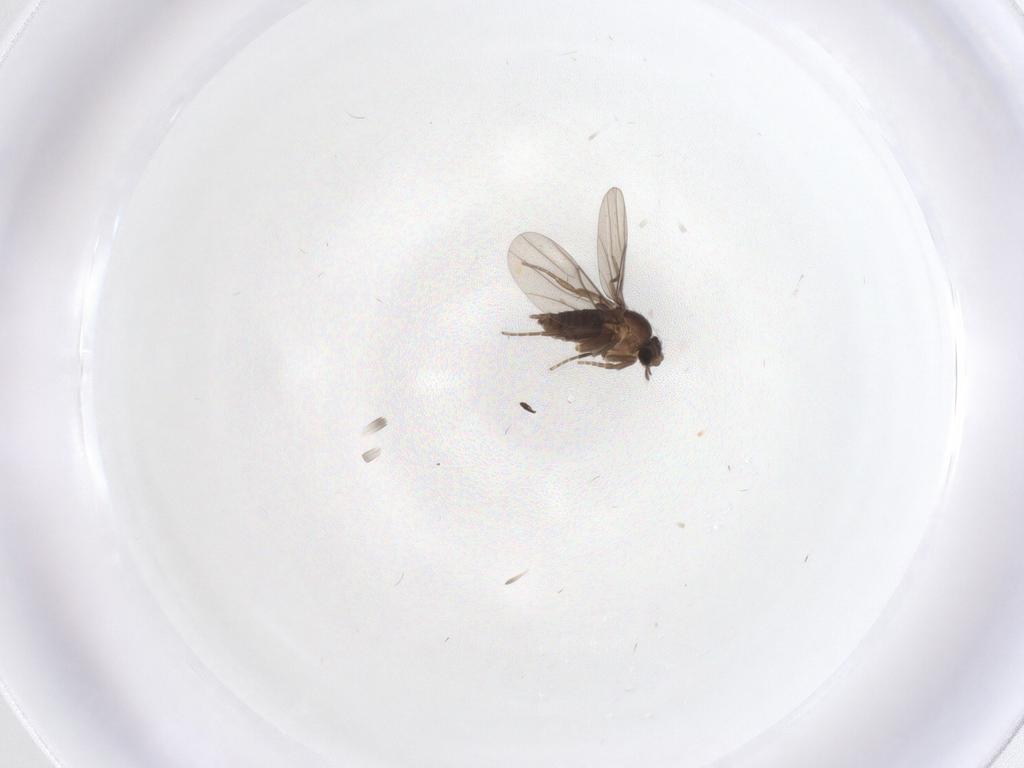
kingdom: Animalia
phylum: Arthropoda
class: Insecta
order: Diptera
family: Phoridae
